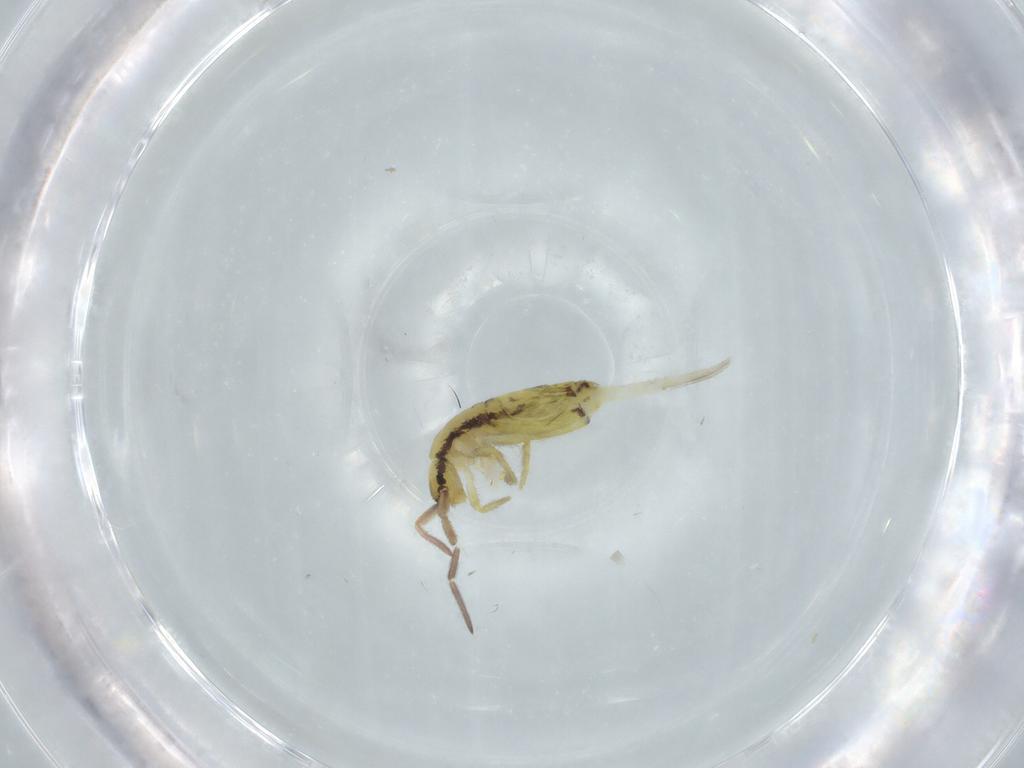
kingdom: Animalia
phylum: Arthropoda
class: Collembola
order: Entomobryomorpha
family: Entomobryidae
